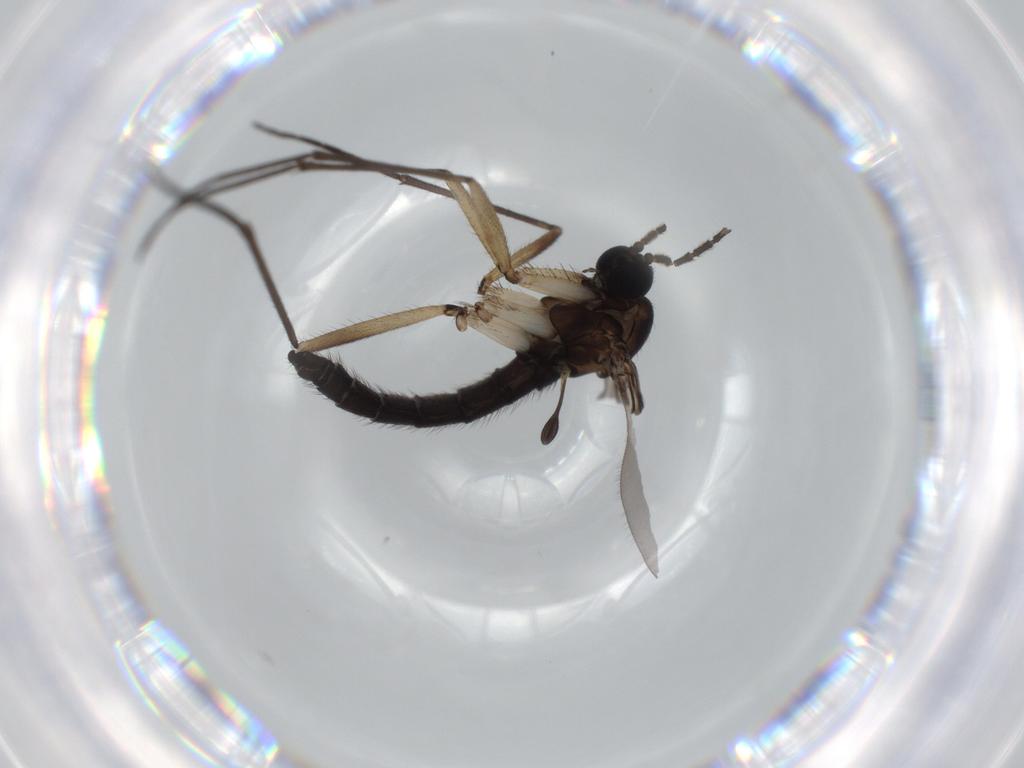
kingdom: Animalia
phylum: Arthropoda
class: Insecta
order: Diptera
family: Sciaridae
